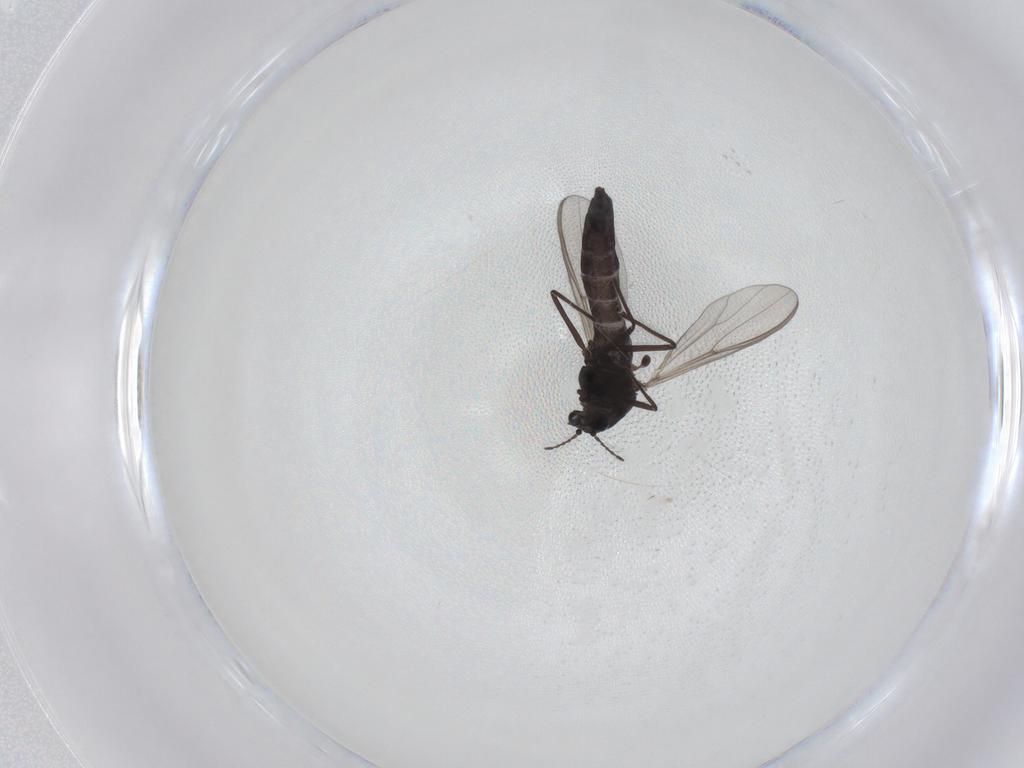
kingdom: Animalia
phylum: Arthropoda
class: Insecta
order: Diptera
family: Chironomidae
